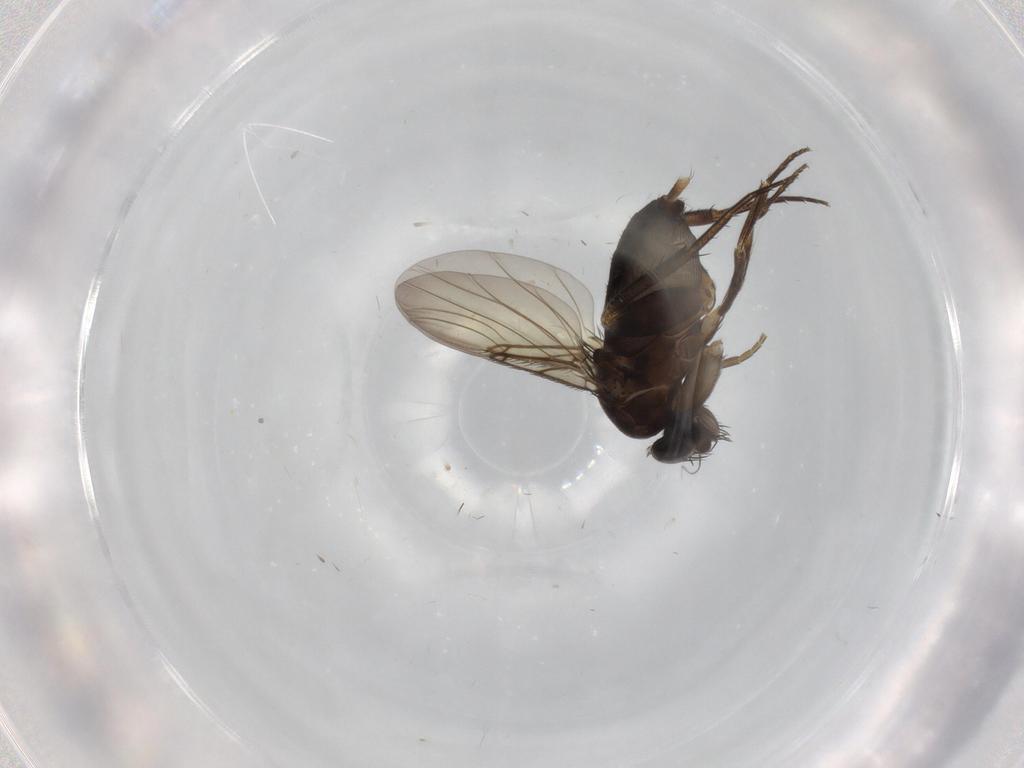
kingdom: Animalia
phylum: Arthropoda
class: Insecta
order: Diptera
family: Phoridae
